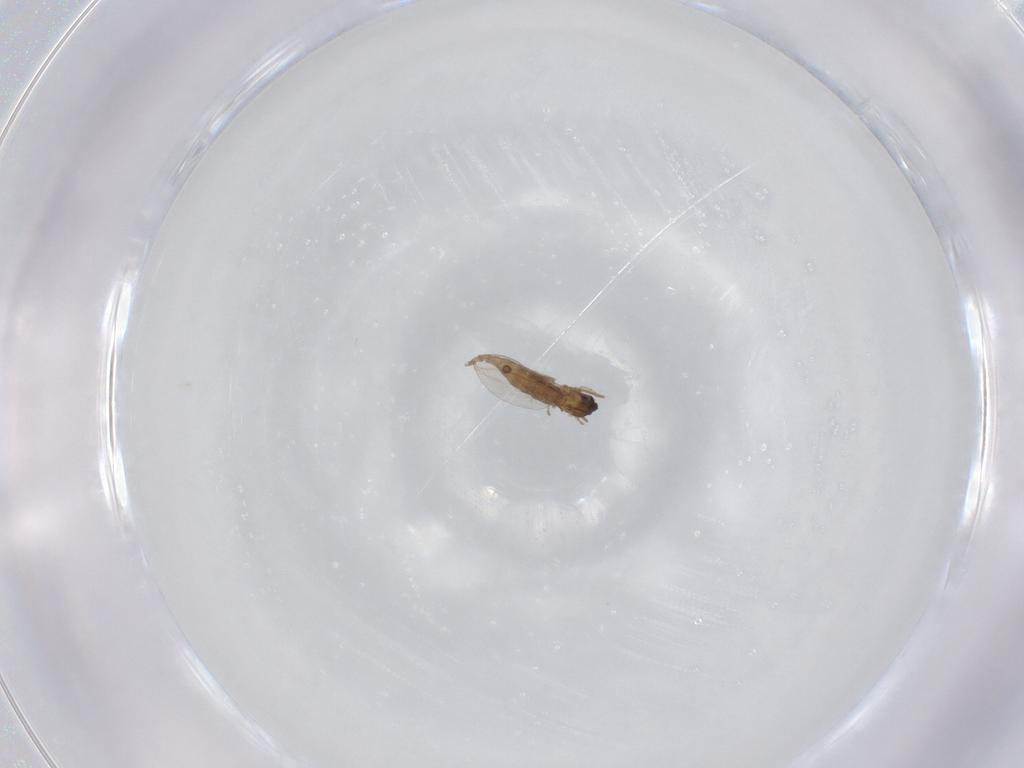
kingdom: Animalia
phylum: Arthropoda
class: Insecta
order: Diptera
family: Cecidomyiidae
